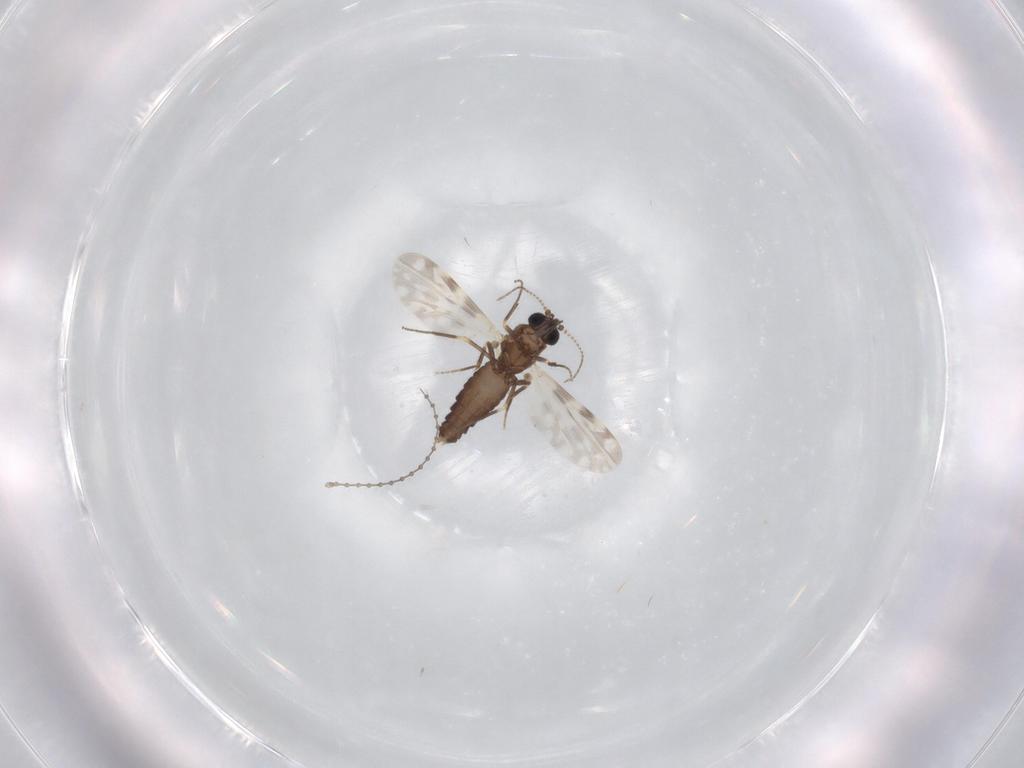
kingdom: Animalia
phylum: Arthropoda
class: Insecta
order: Diptera
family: Ceratopogonidae
